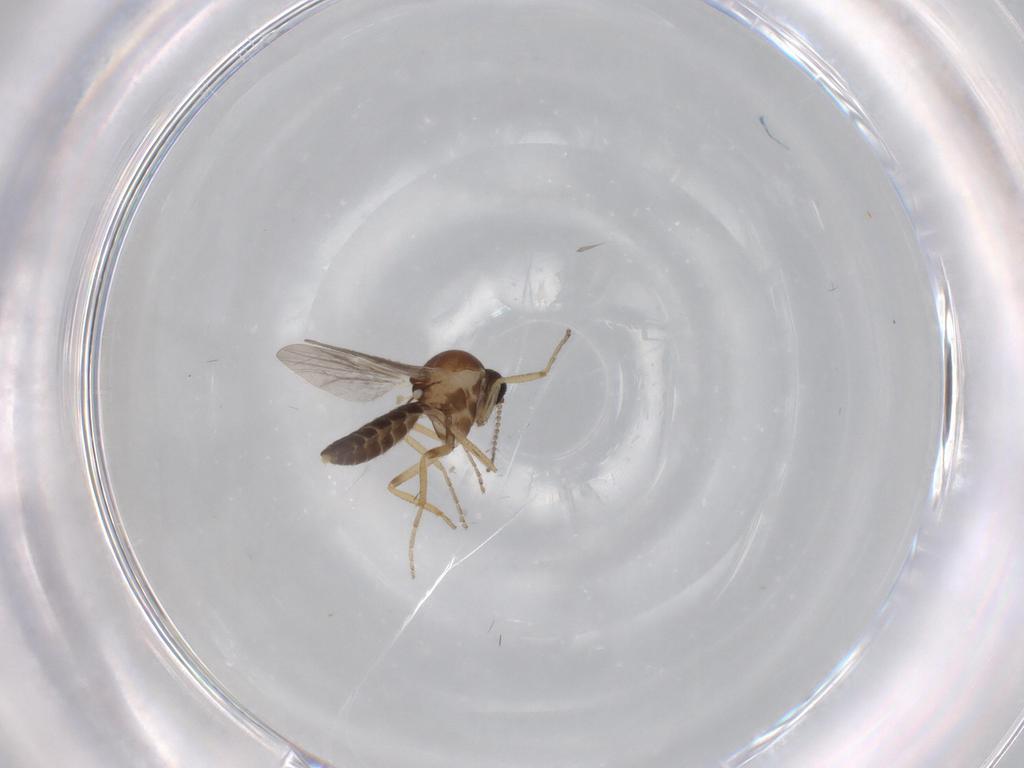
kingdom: Animalia
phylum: Arthropoda
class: Insecta
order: Diptera
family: Ceratopogonidae
